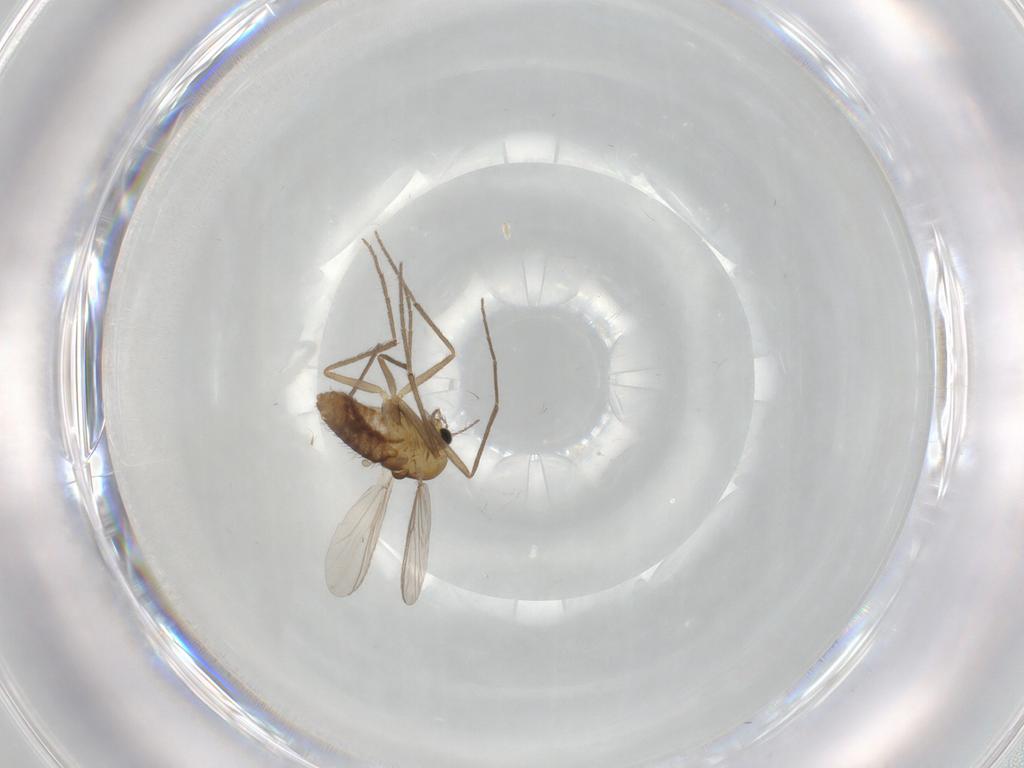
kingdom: Animalia
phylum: Arthropoda
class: Insecta
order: Diptera
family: Chironomidae
